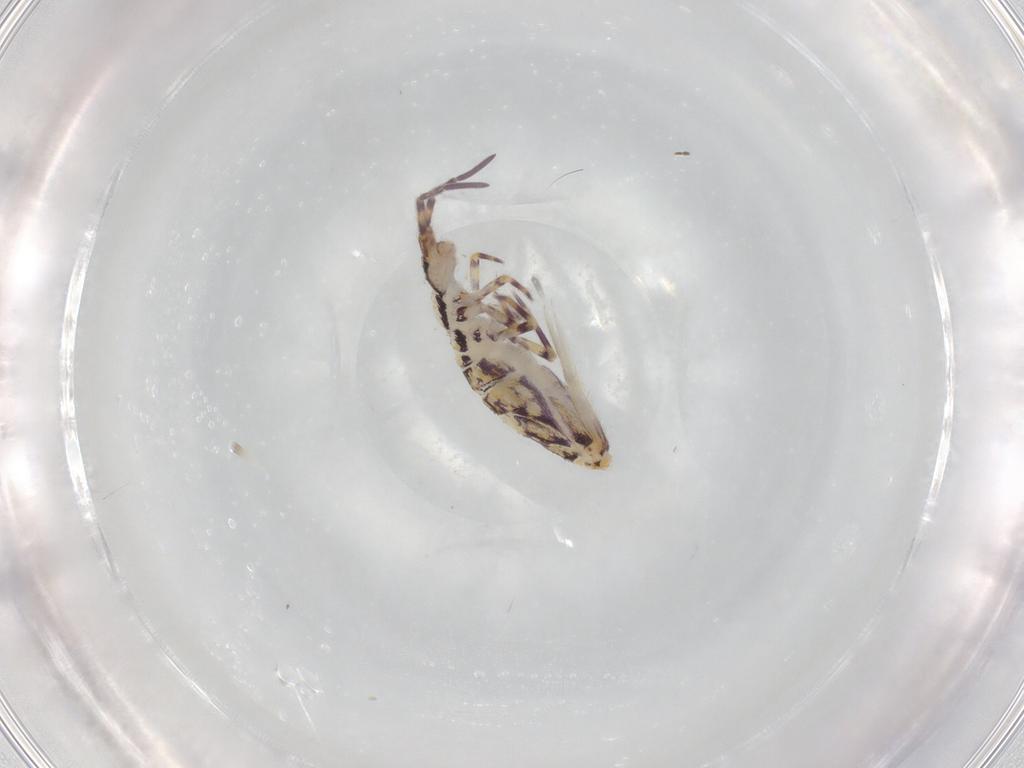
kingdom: Animalia
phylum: Arthropoda
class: Collembola
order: Entomobryomorpha
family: Entomobryidae
